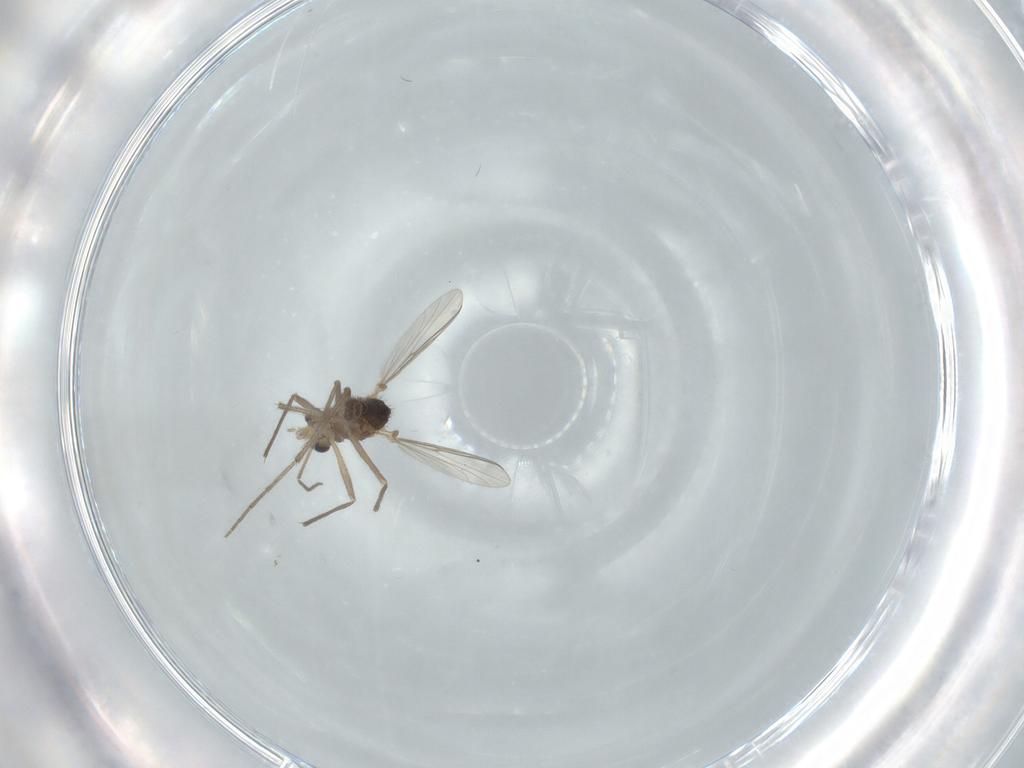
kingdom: Animalia
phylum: Arthropoda
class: Insecta
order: Diptera
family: Chironomidae
